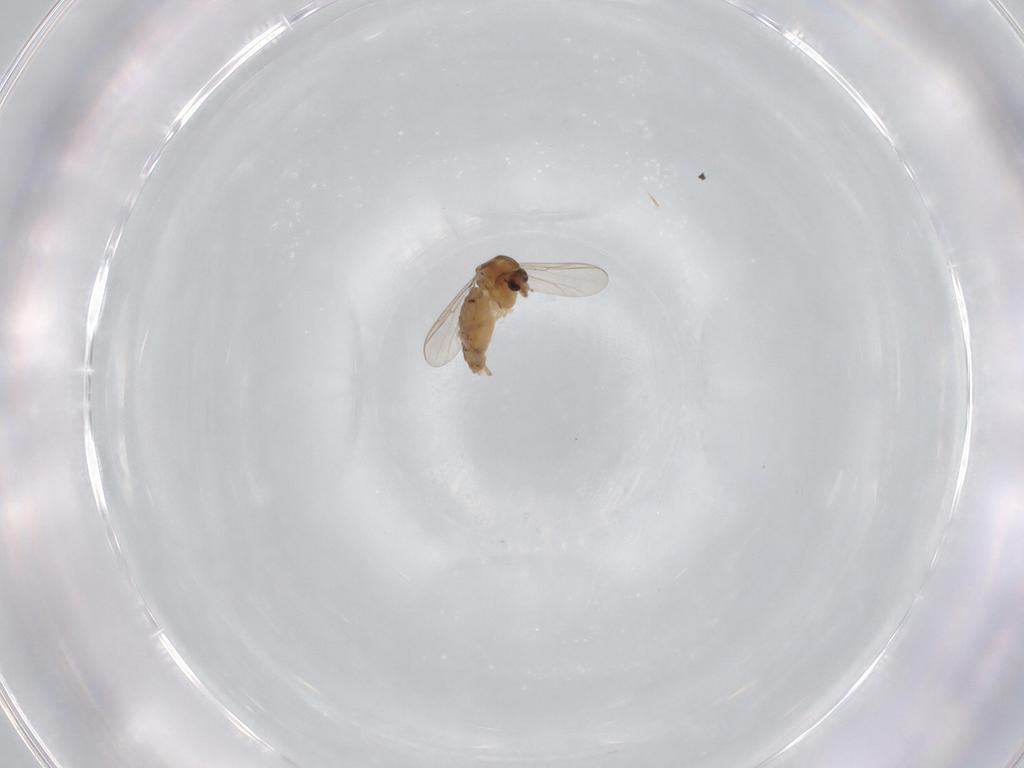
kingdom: Animalia
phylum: Arthropoda
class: Insecta
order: Diptera
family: Chironomidae
